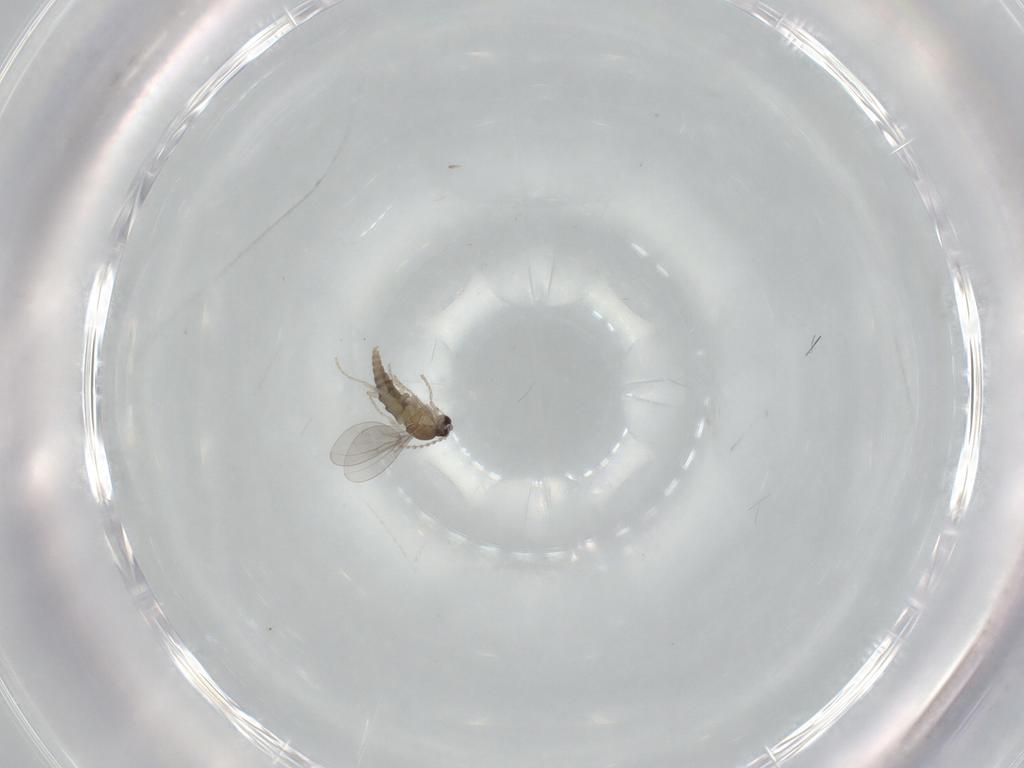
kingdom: Animalia
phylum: Arthropoda
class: Insecta
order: Diptera
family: Cecidomyiidae
